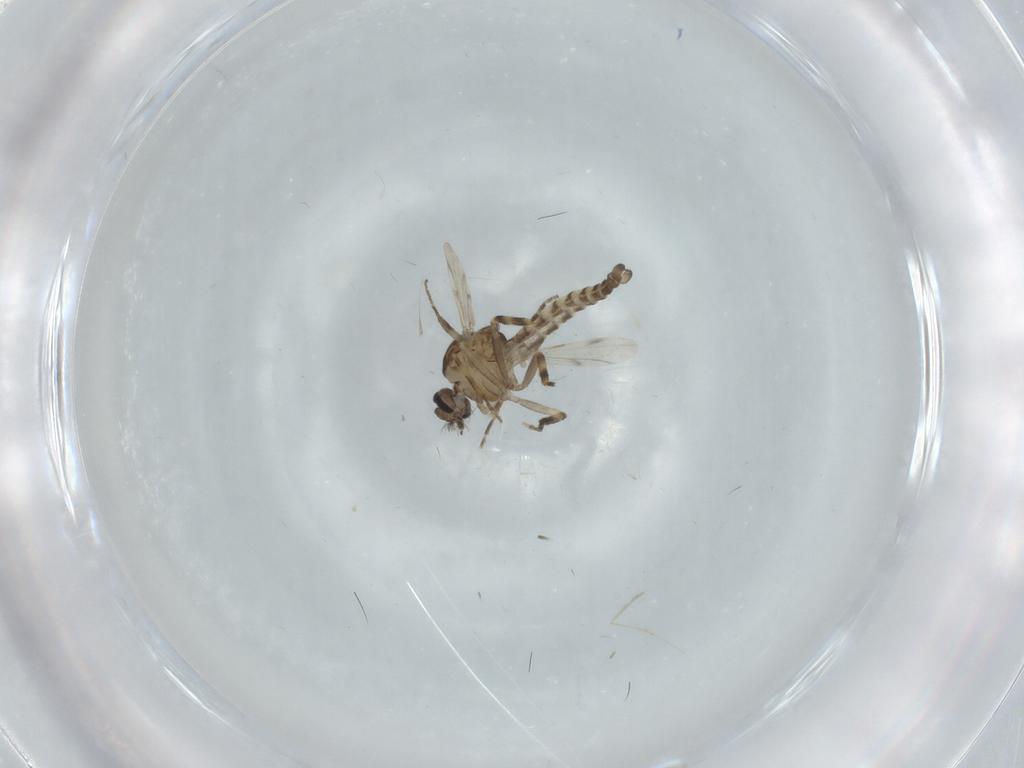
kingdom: Animalia
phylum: Arthropoda
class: Insecta
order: Diptera
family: Ceratopogonidae
